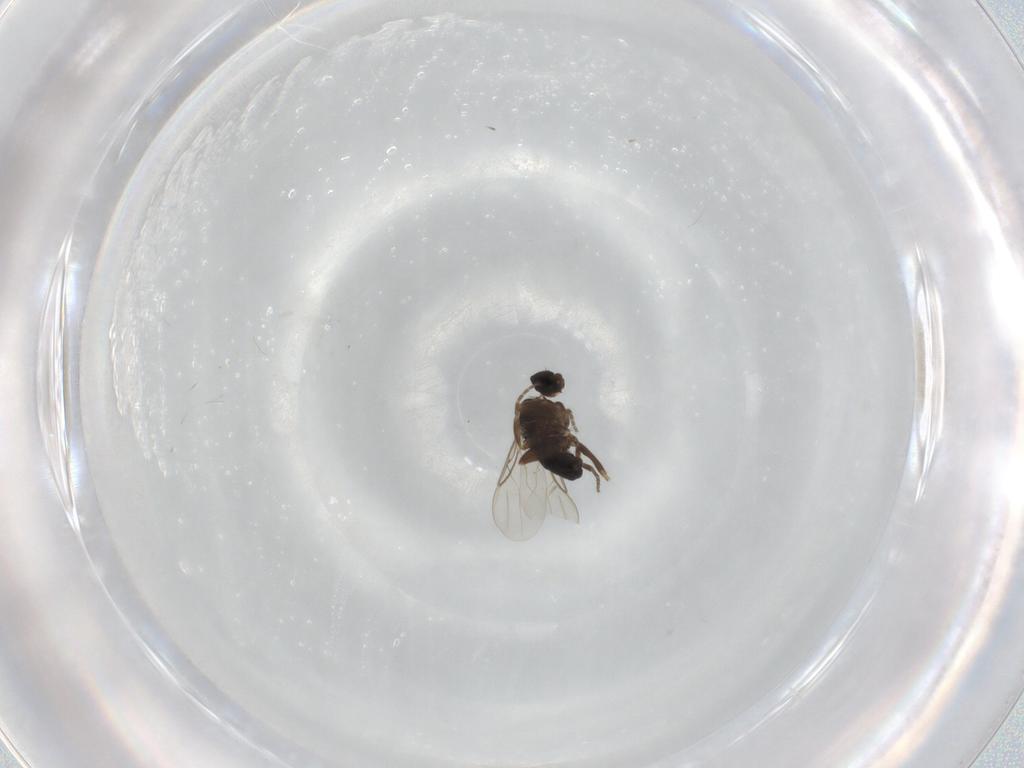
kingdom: Animalia
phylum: Arthropoda
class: Insecta
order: Diptera
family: Phoridae
